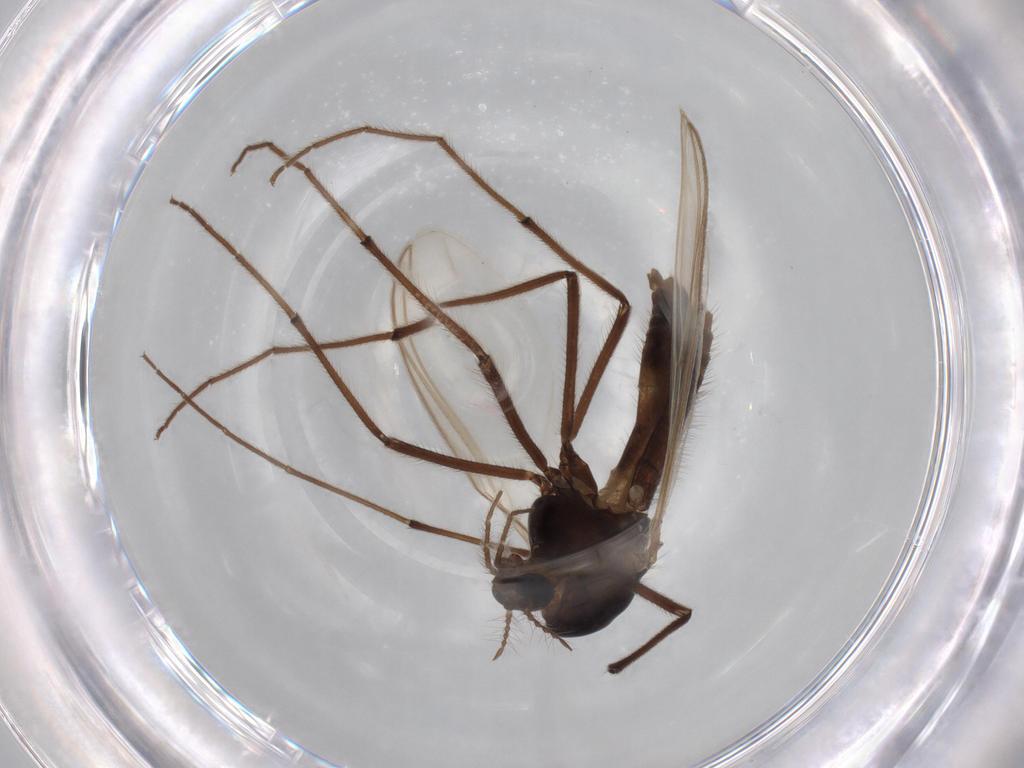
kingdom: Animalia
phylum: Arthropoda
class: Insecta
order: Diptera
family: Chironomidae
